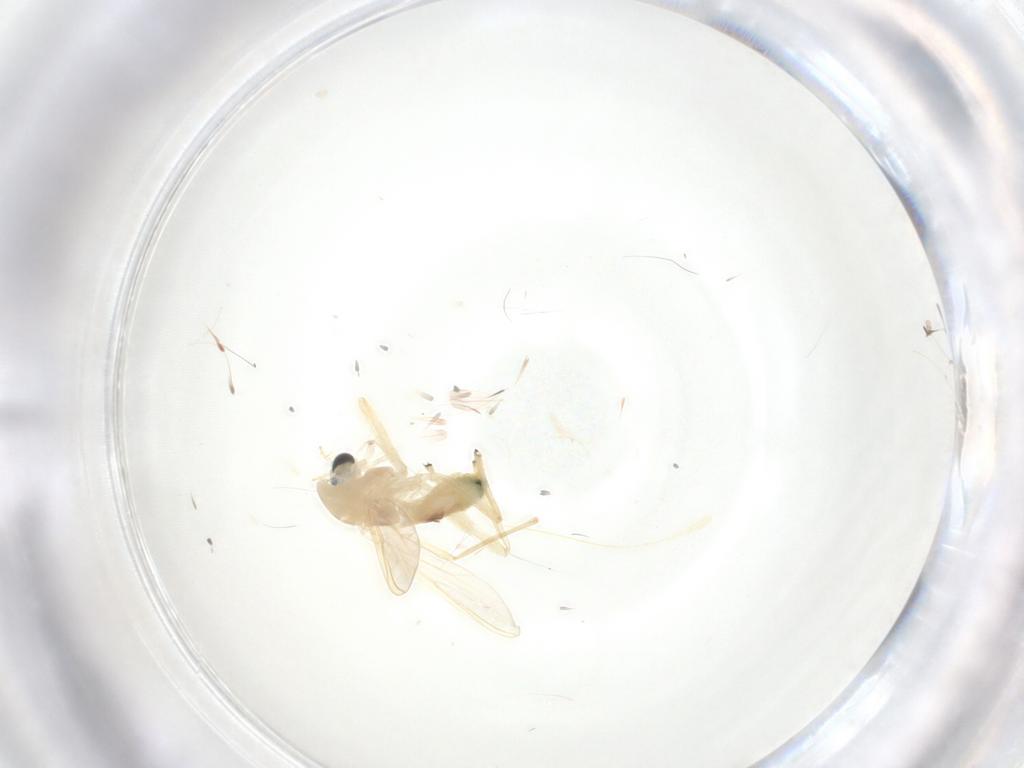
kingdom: Animalia
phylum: Arthropoda
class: Insecta
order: Diptera
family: Chironomidae
